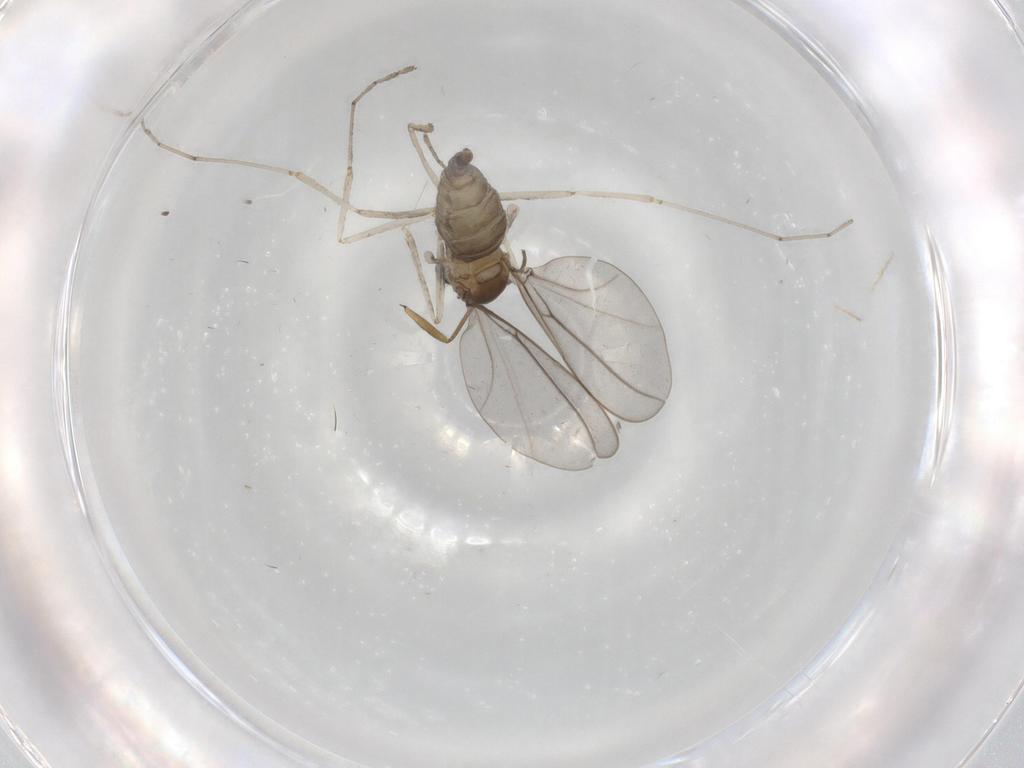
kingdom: Animalia
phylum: Arthropoda
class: Insecta
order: Diptera
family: Sciaridae
